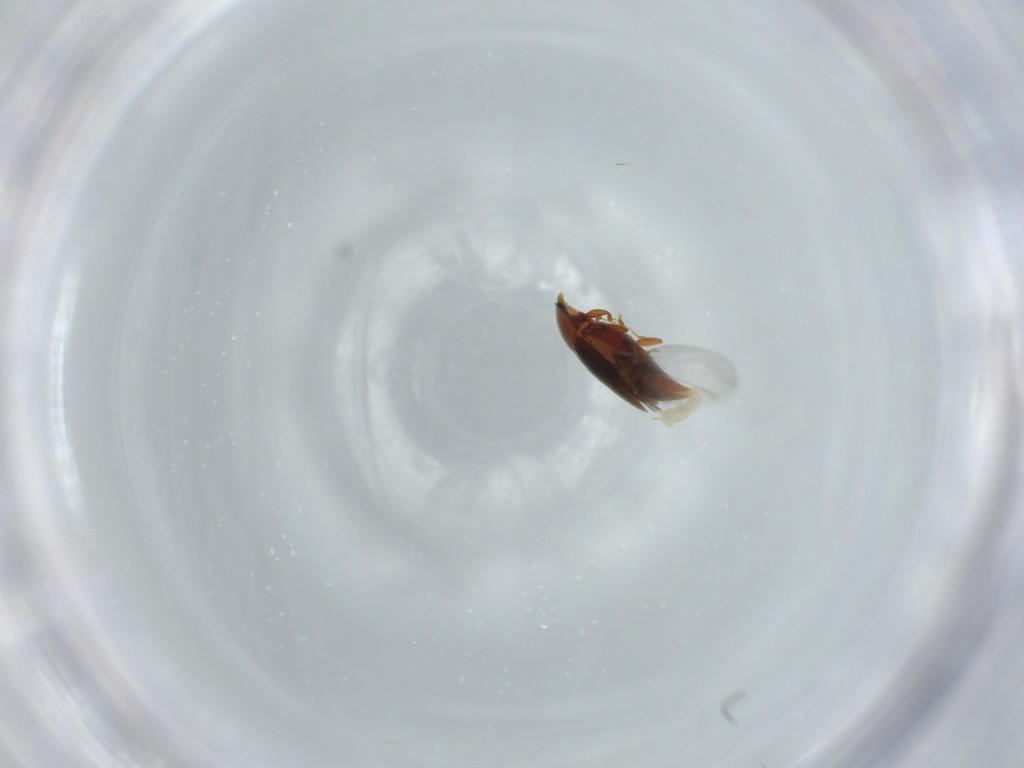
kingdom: Animalia
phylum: Arthropoda
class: Insecta
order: Coleoptera
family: Corylophidae
